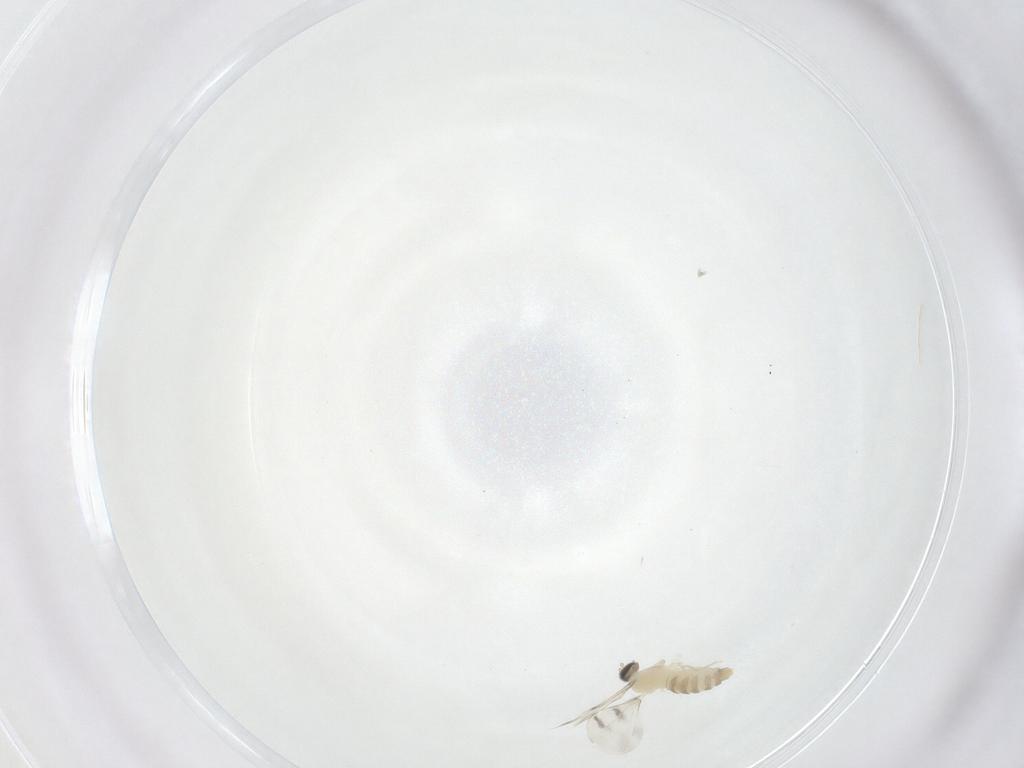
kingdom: Animalia
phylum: Arthropoda
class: Insecta
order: Diptera
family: Cecidomyiidae
